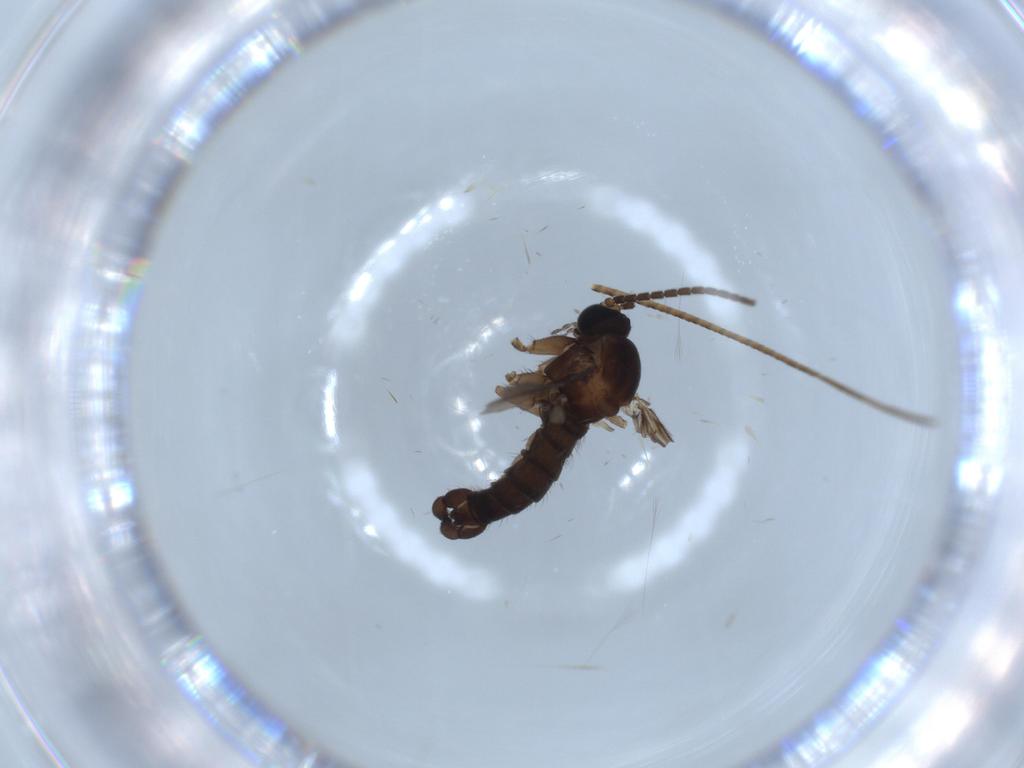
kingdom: Animalia
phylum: Arthropoda
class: Insecta
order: Diptera
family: Sciaridae
